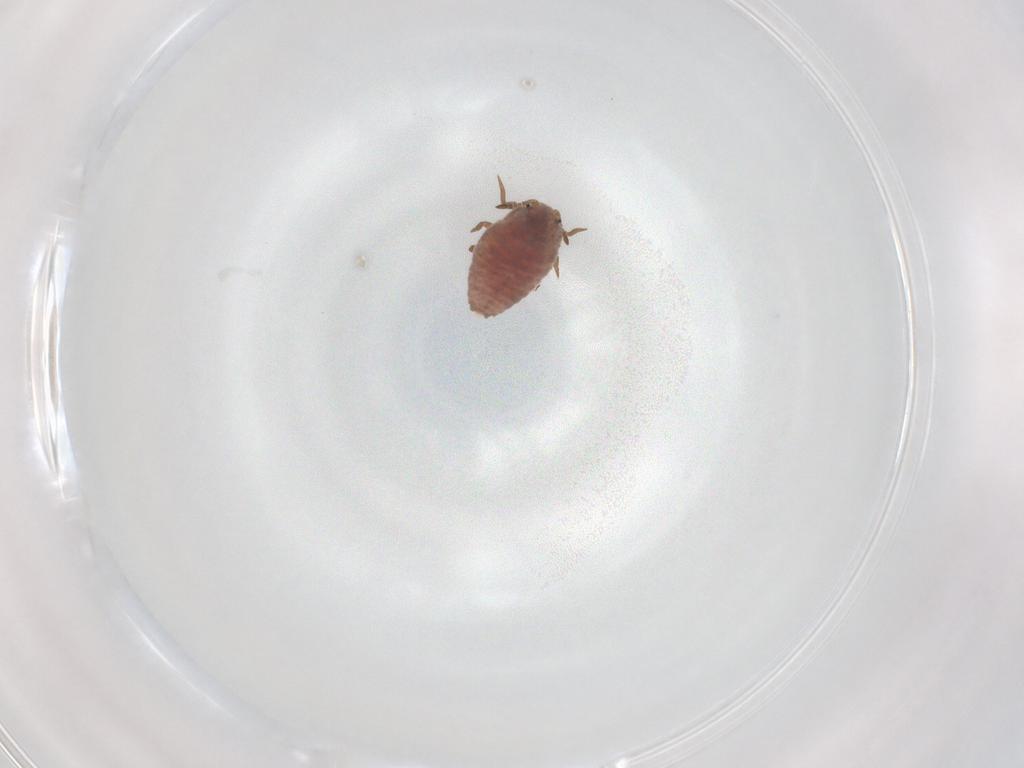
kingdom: Animalia
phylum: Arthropoda
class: Insecta
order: Hemiptera
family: Putoidae
